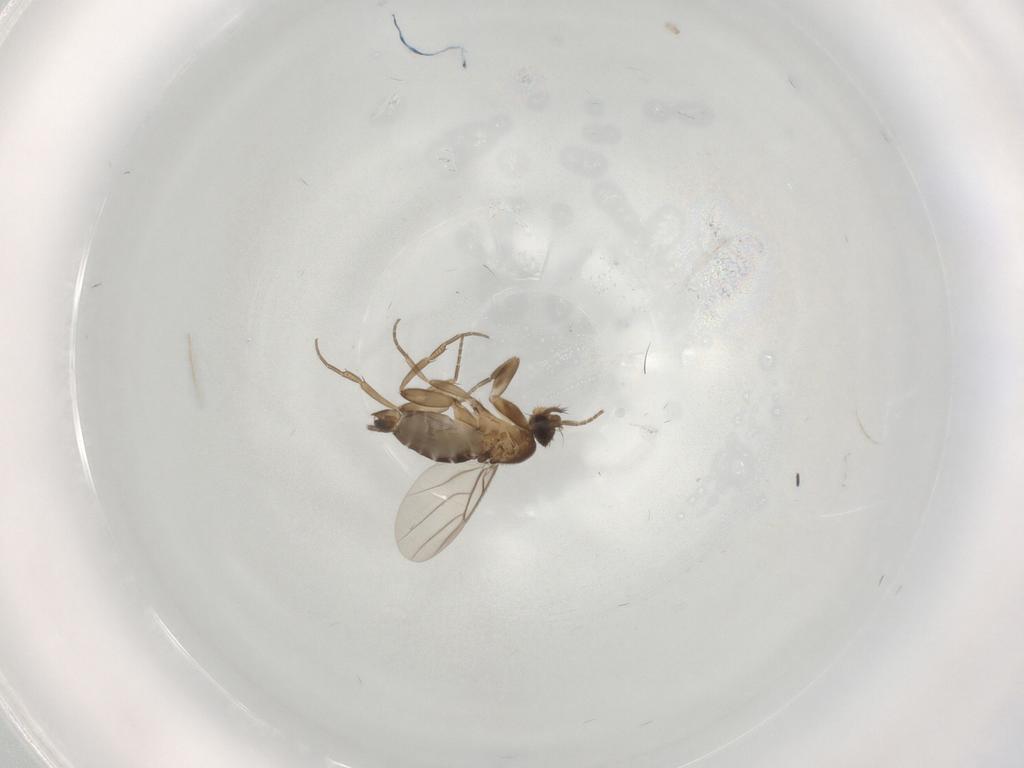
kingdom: Animalia
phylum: Arthropoda
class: Insecta
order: Diptera
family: Phoridae
